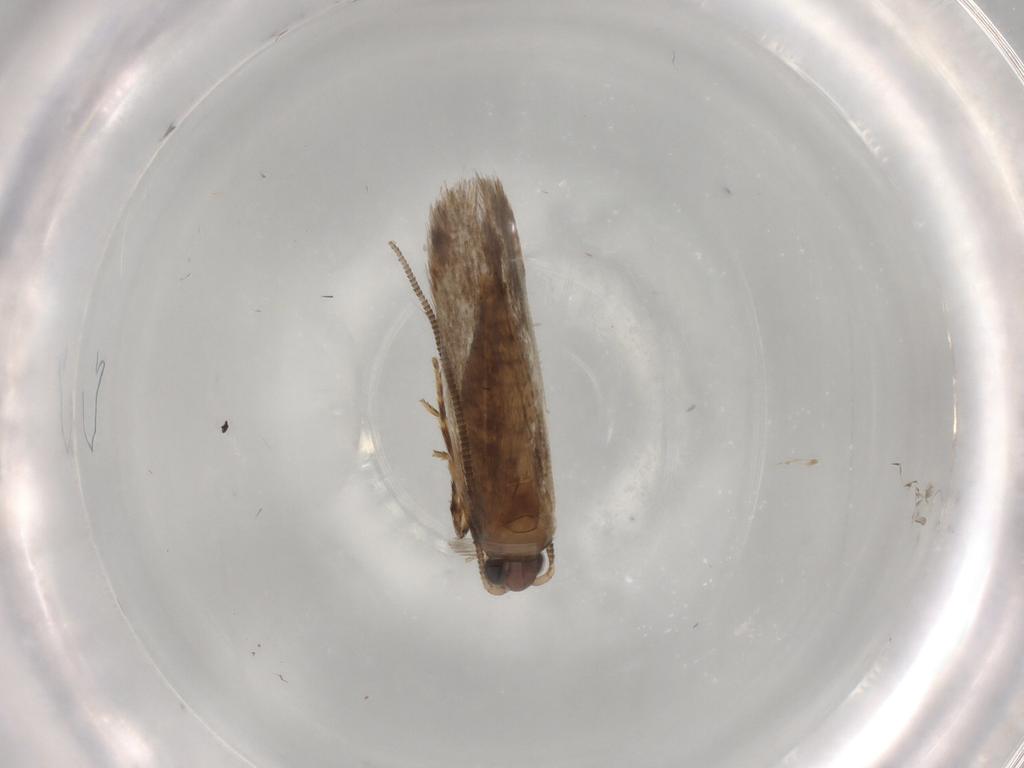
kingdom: Animalia
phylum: Arthropoda
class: Insecta
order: Lepidoptera
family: Tineidae
